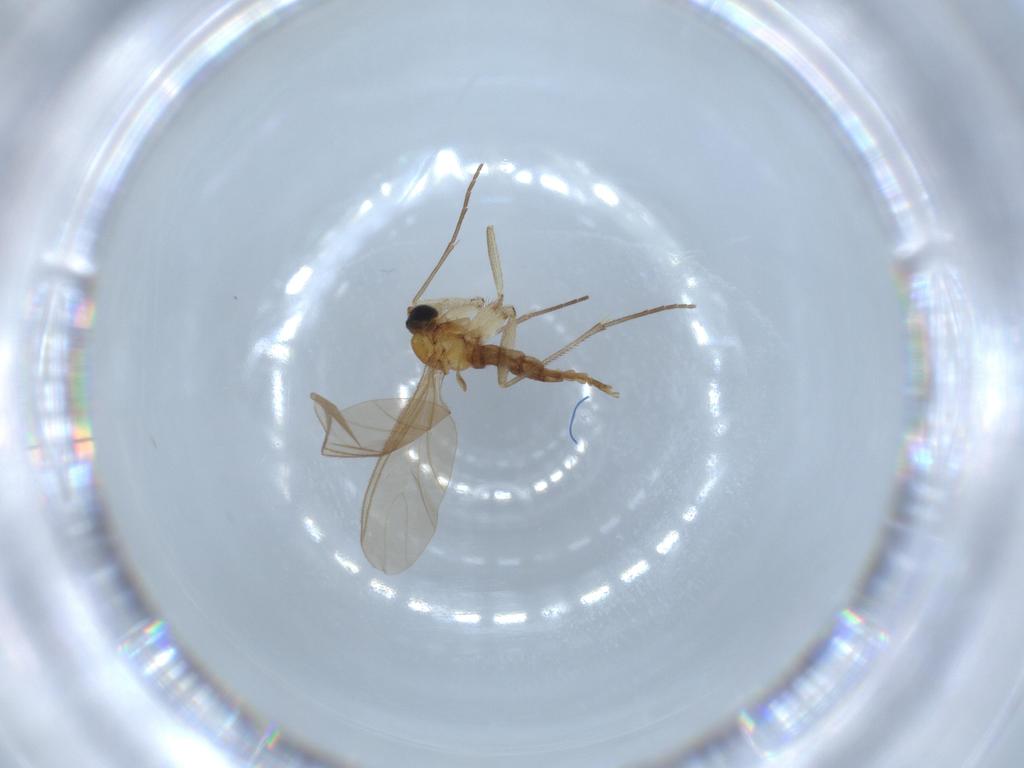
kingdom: Animalia
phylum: Arthropoda
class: Insecta
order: Diptera
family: Sciaridae
